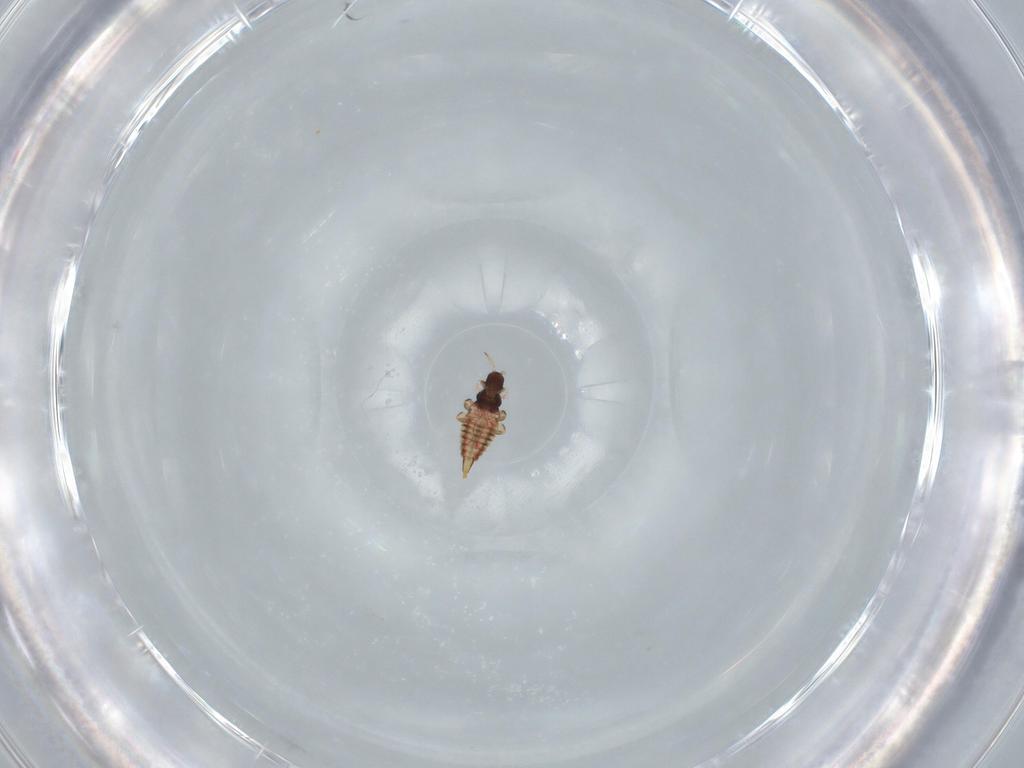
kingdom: Animalia
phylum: Arthropoda
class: Insecta
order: Thysanoptera
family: Phlaeothripidae
